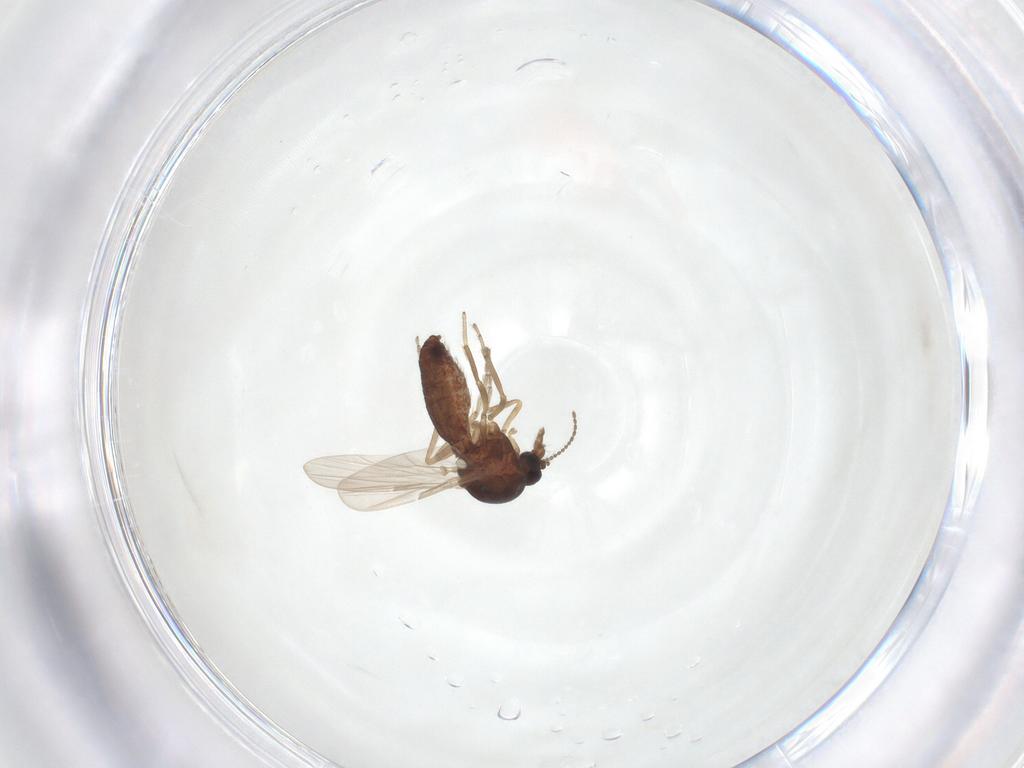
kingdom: Animalia
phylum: Arthropoda
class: Insecta
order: Diptera
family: Ceratopogonidae
